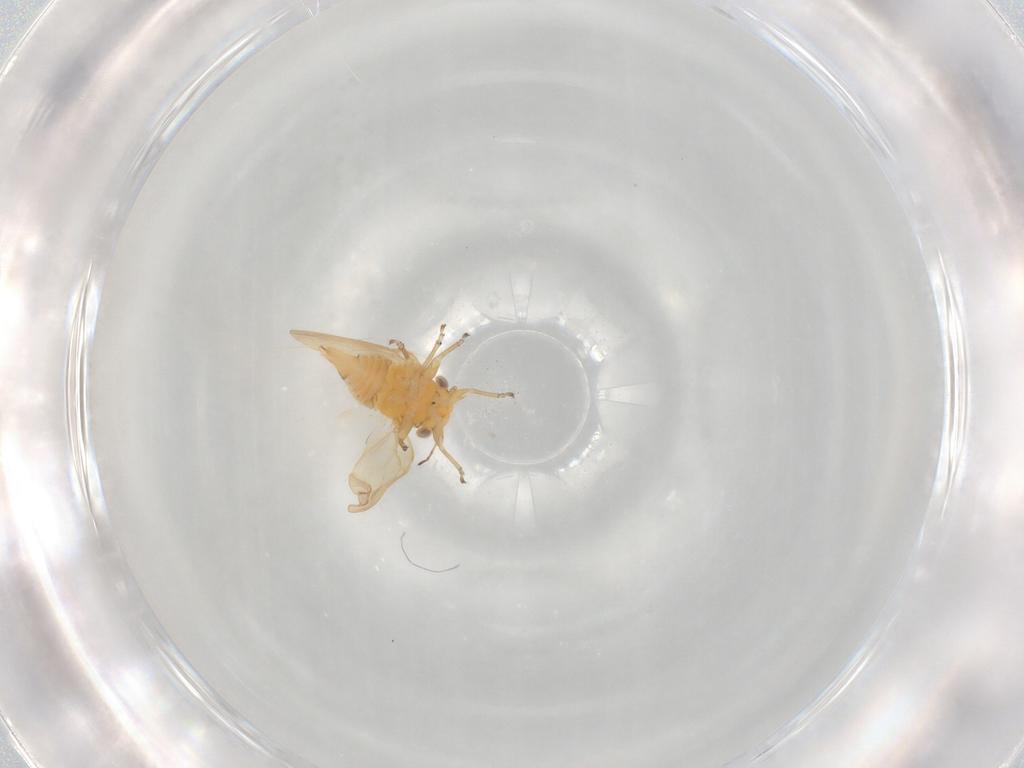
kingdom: Animalia
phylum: Arthropoda
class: Insecta
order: Hemiptera
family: Liviidae
